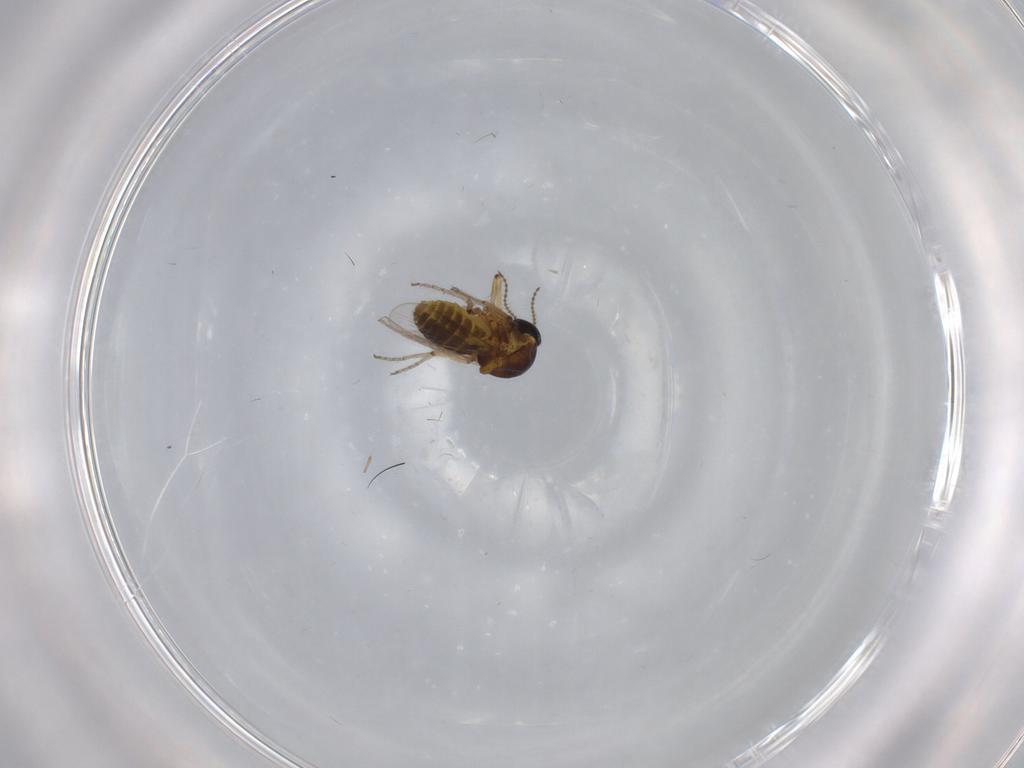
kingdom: Animalia
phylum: Arthropoda
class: Insecta
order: Diptera
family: Ceratopogonidae
